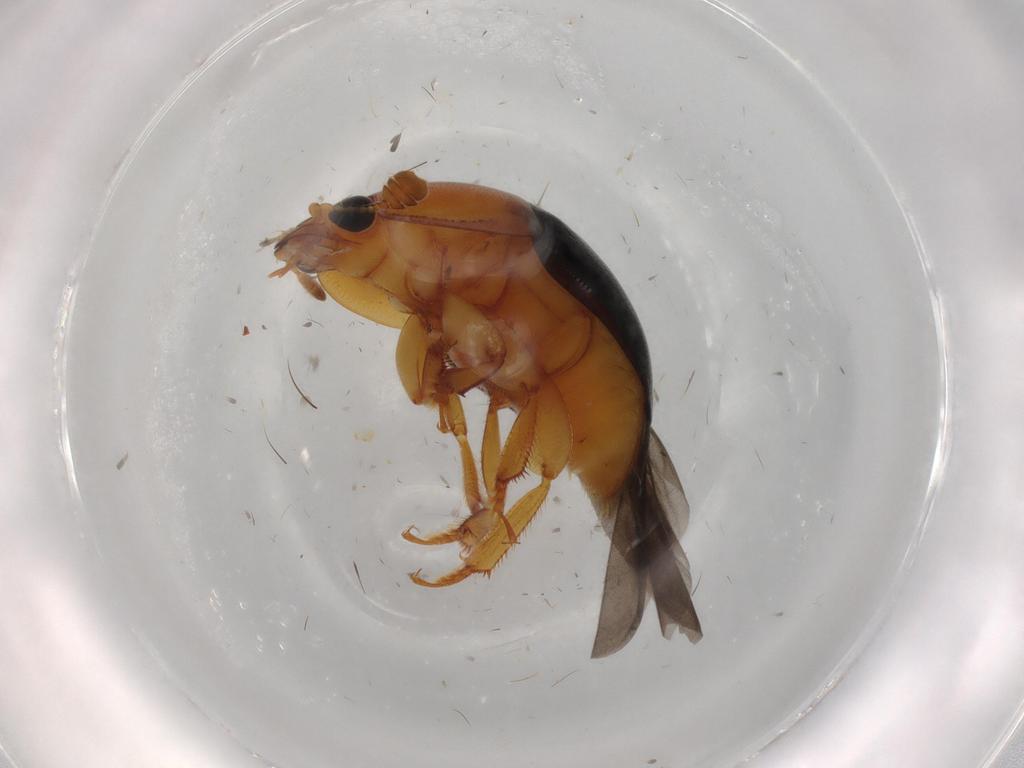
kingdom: Animalia
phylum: Arthropoda
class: Insecta
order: Coleoptera
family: Nitidulidae
